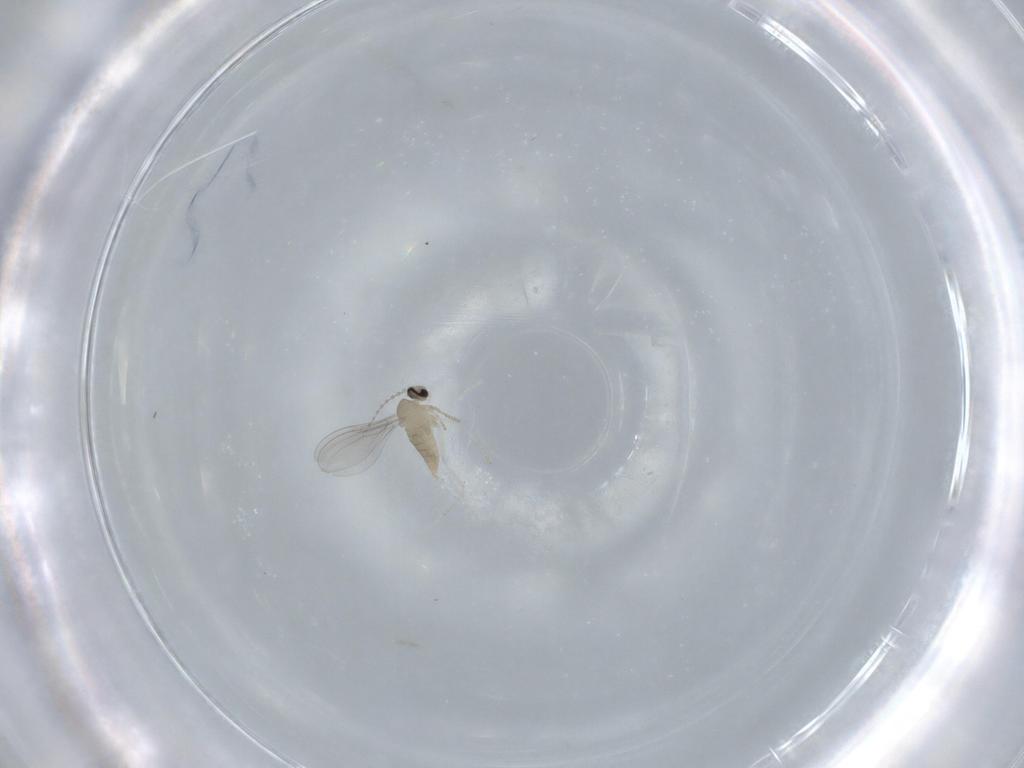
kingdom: Animalia
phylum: Arthropoda
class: Insecta
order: Diptera
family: Cecidomyiidae
